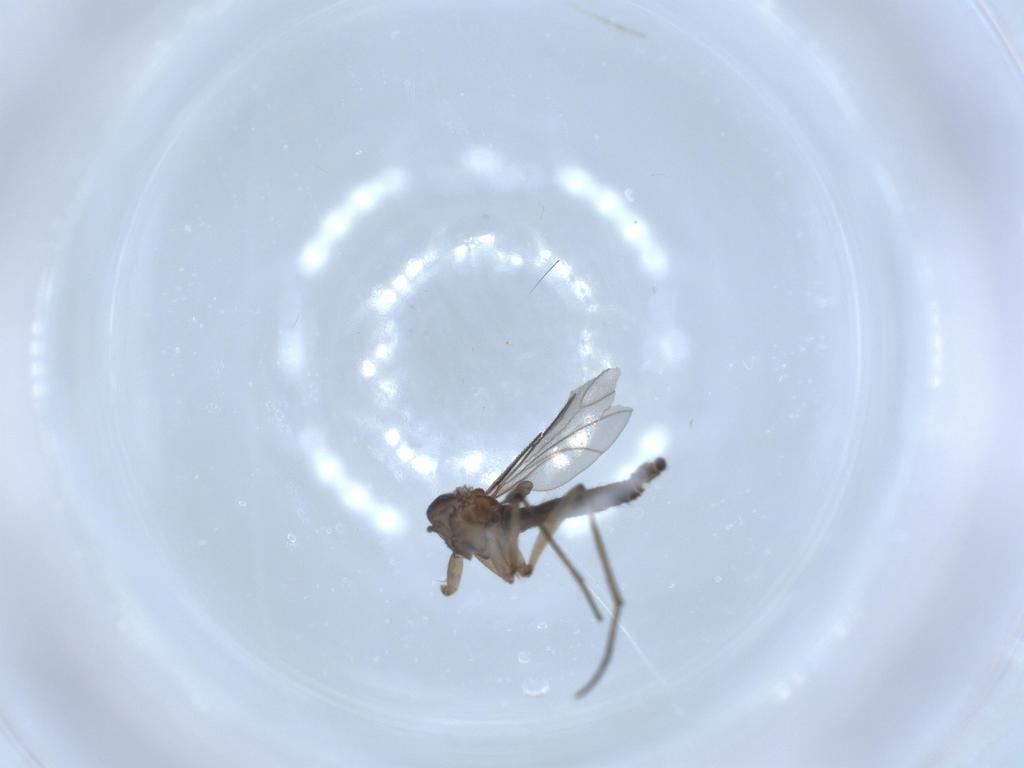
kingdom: Animalia
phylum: Arthropoda
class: Insecta
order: Diptera
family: Sciaridae
